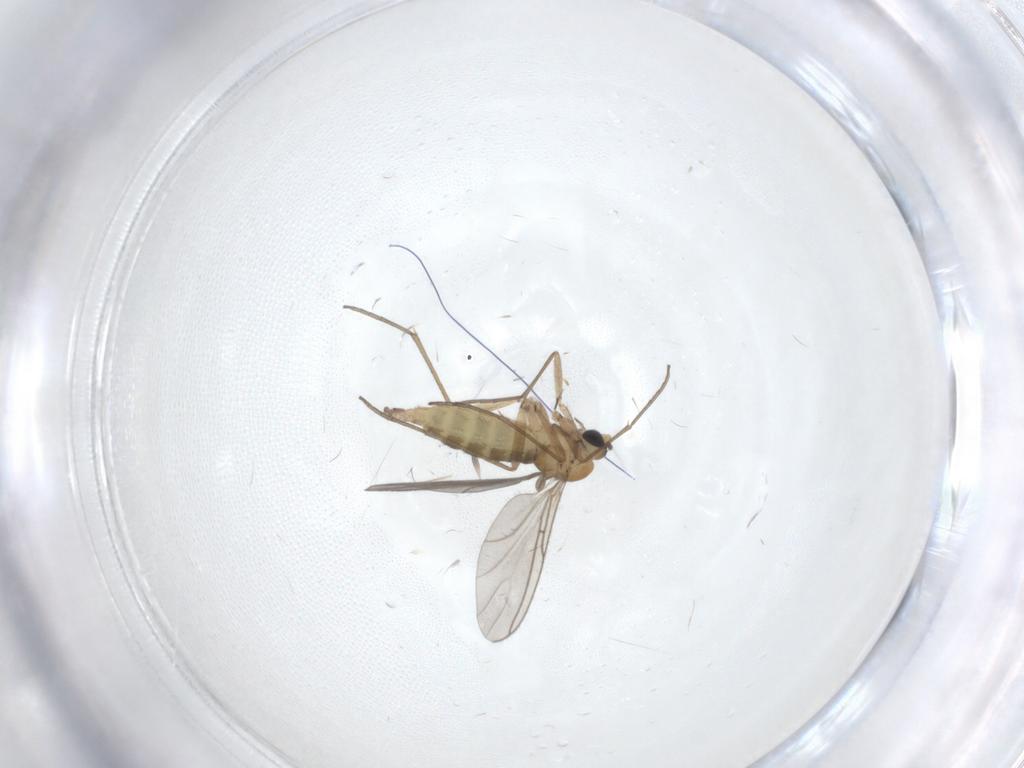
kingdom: Animalia
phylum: Arthropoda
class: Insecta
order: Diptera
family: Sciaridae
